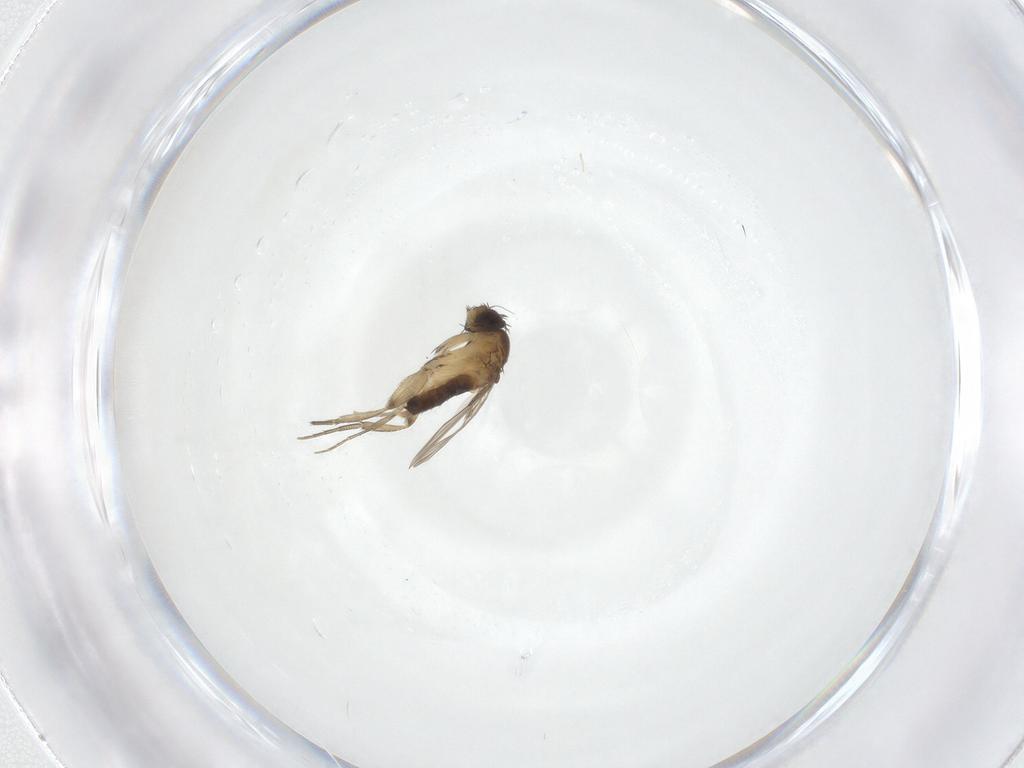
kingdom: Animalia
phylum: Arthropoda
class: Insecta
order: Diptera
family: Phoridae
